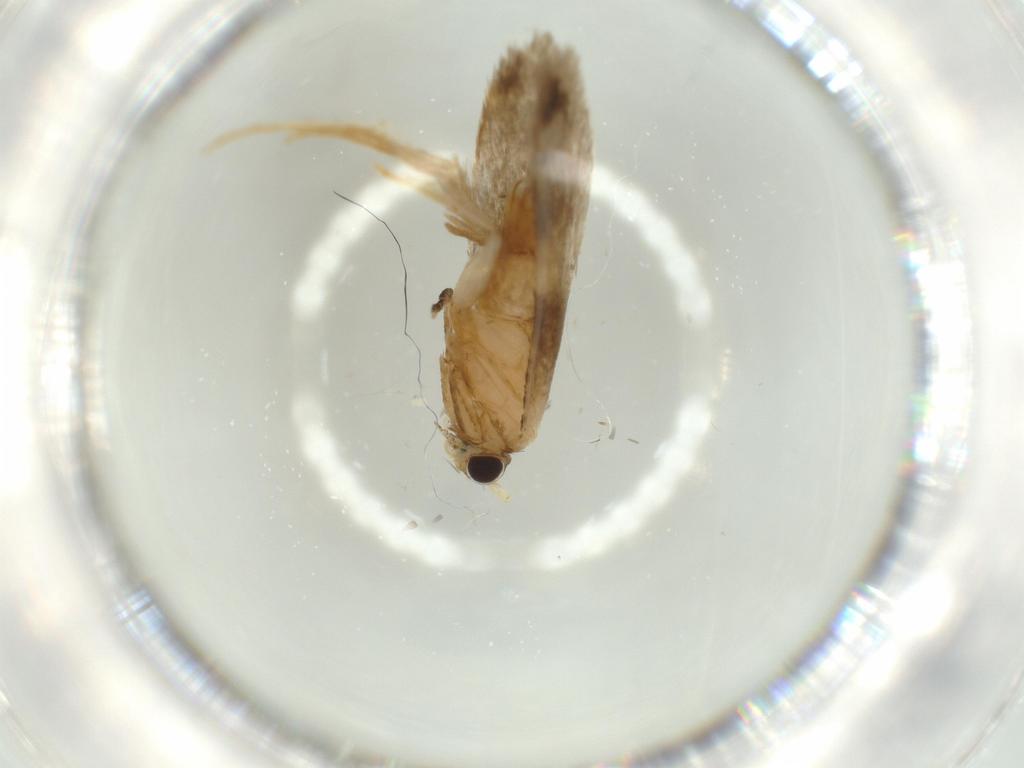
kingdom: Animalia
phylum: Arthropoda
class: Insecta
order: Lepidoptera
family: Tineidae
